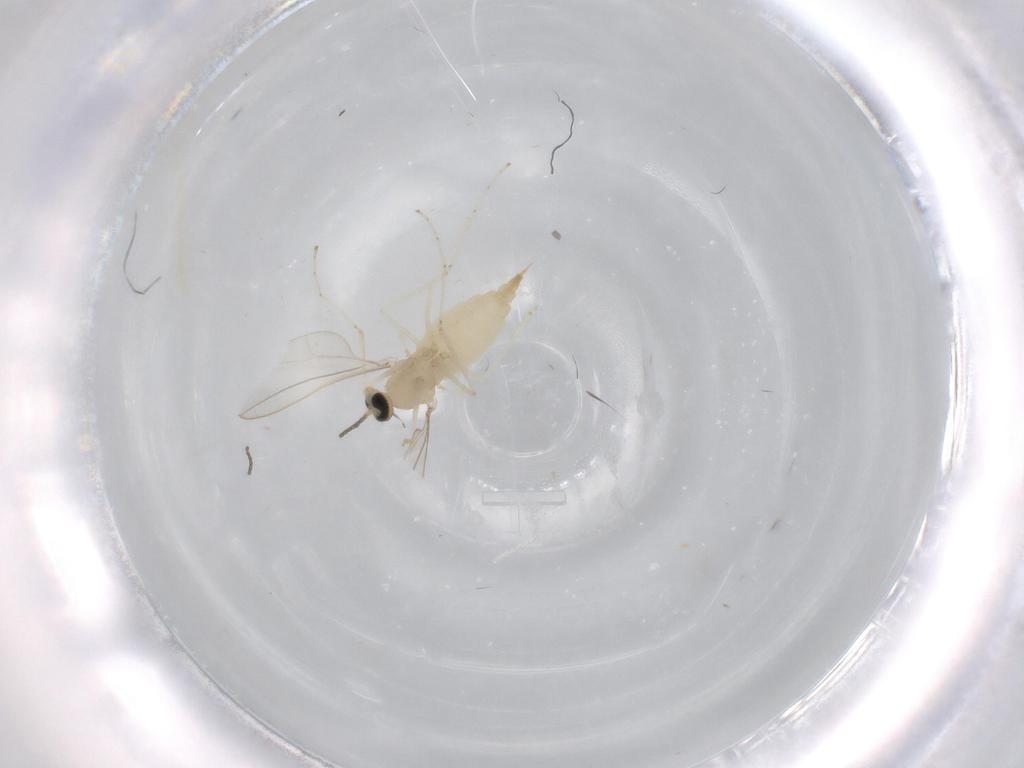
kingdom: Animalia
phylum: Arthropoda
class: Insecta
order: Diptera
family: Cecidomyiidae
